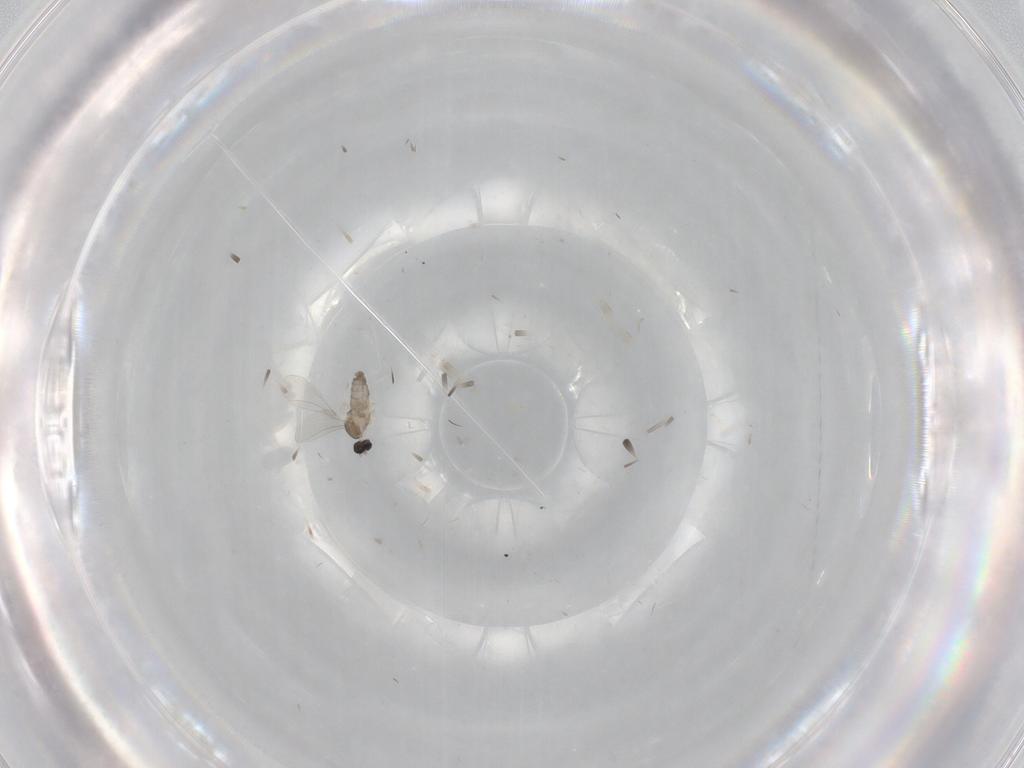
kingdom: Animalia
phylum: Arthropoda
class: Insecta
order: Diptera
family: Cecidomyiidae
